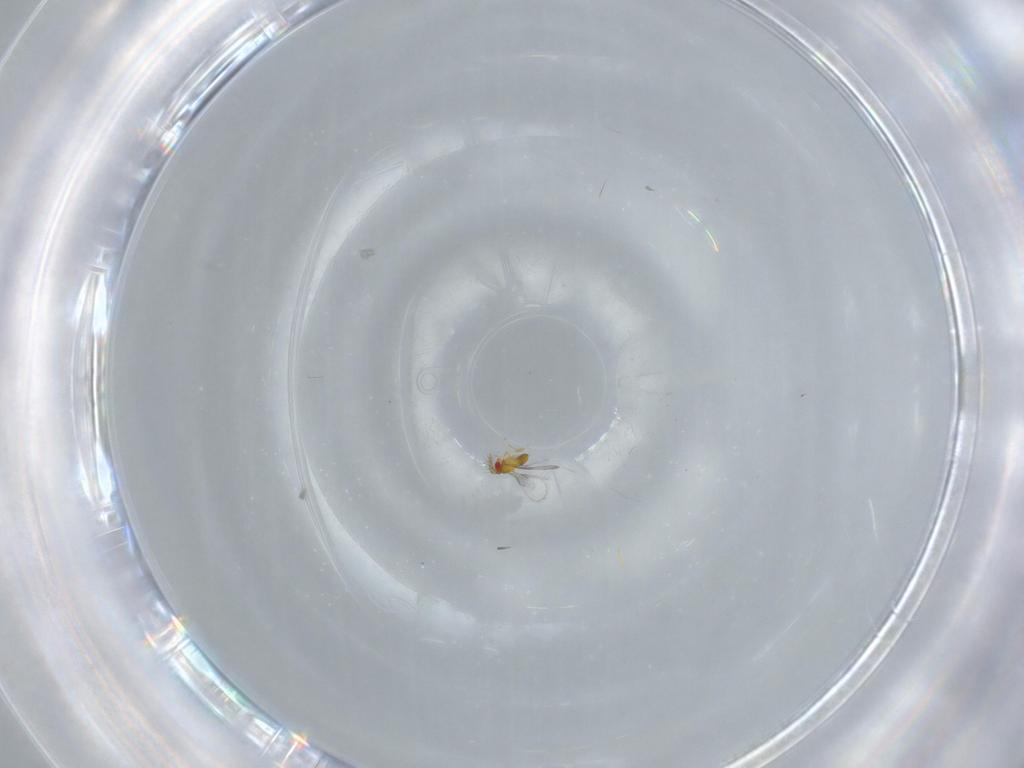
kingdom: Animalia
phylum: Arthropoda
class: Insecta
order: Hymenoptera
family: Trichogrammatidae
